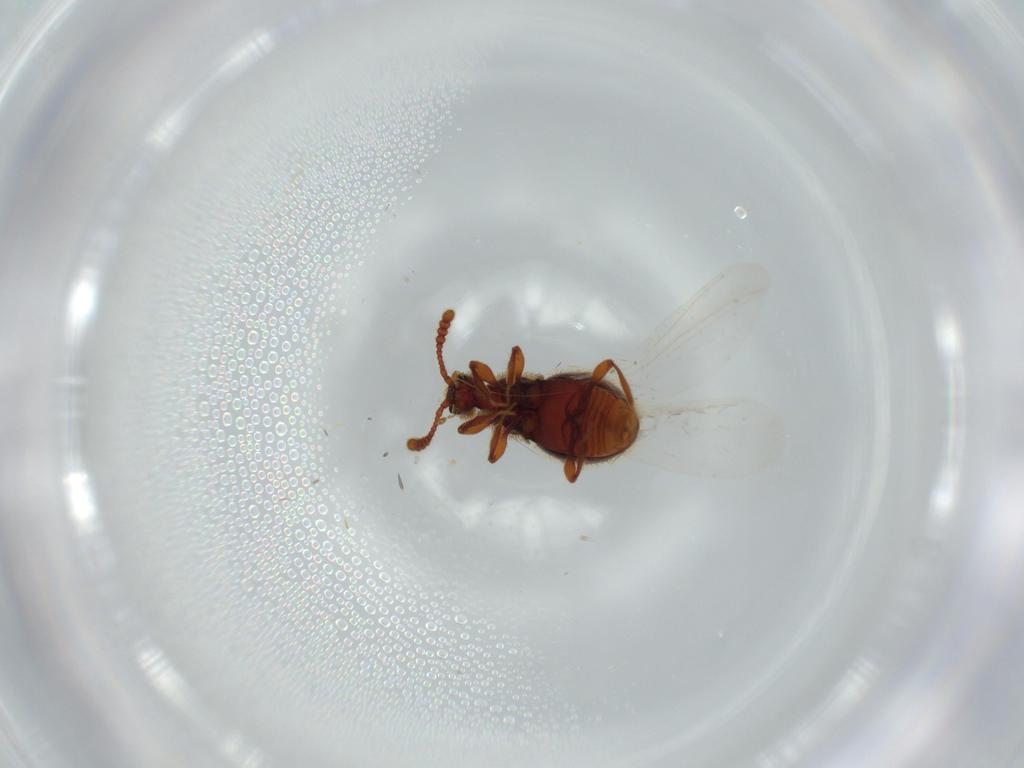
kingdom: Animalia
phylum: Arthropoda
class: Insecta
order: Coleoptera
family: Staphylinidae
